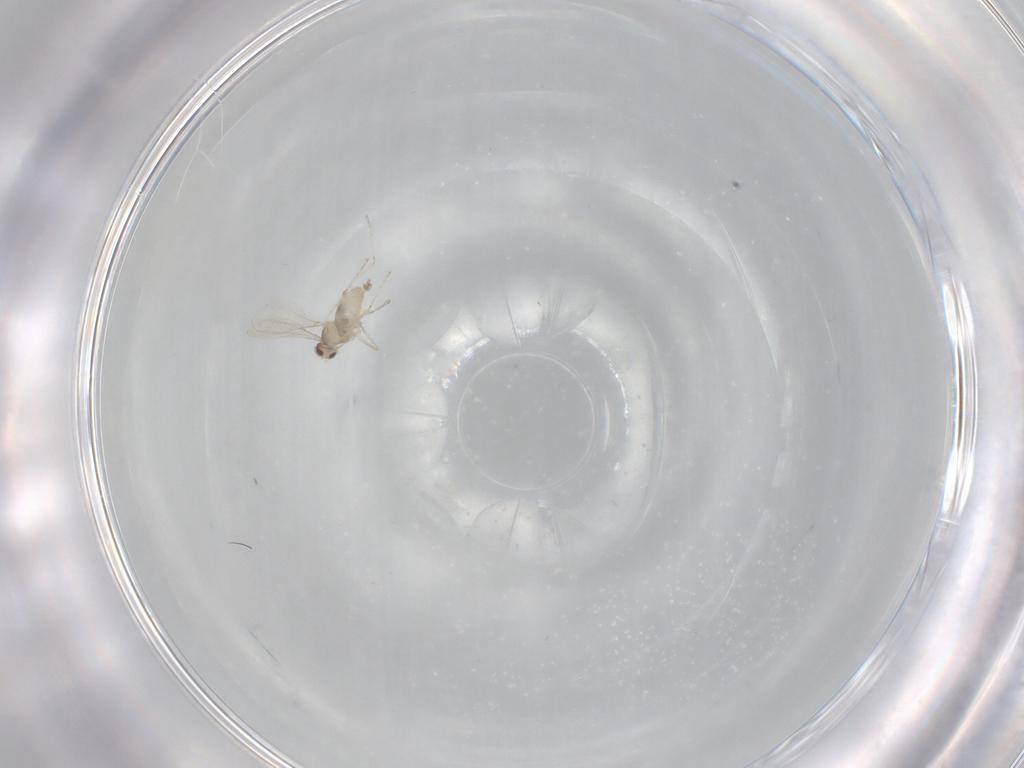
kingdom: Animalia
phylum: Arthropoda
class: Insecta
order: Diptera
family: Cecidomyiidae
